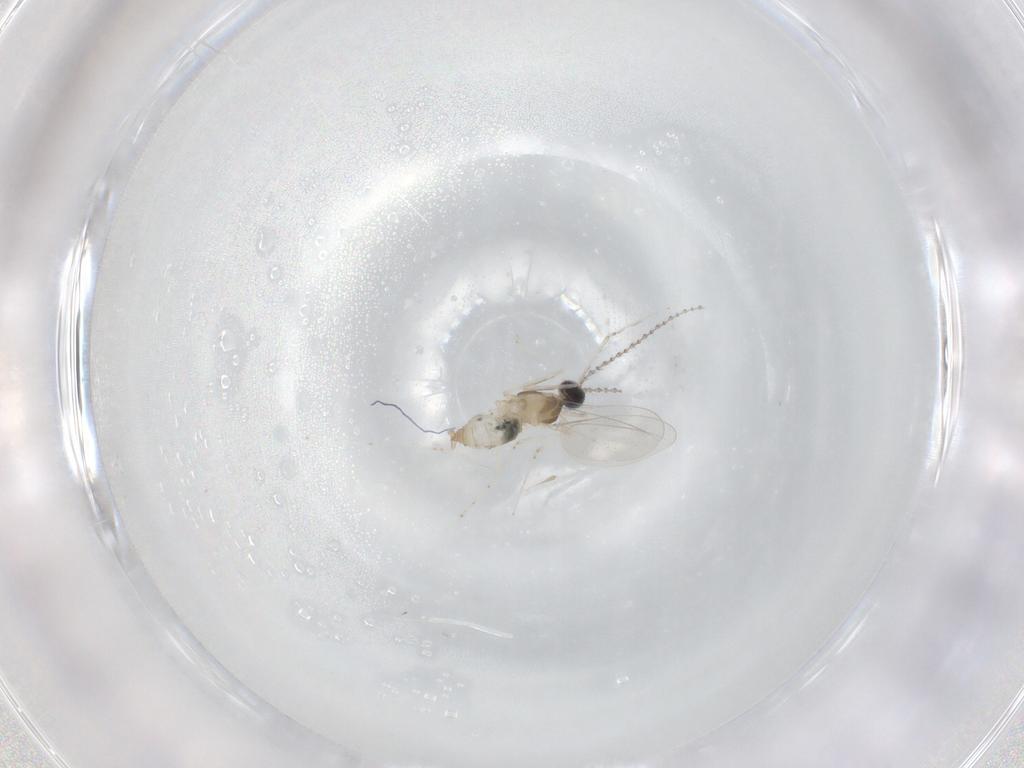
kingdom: Animalia
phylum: Arthropoda
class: Insecta
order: Diptera
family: Cecidomyiidae
